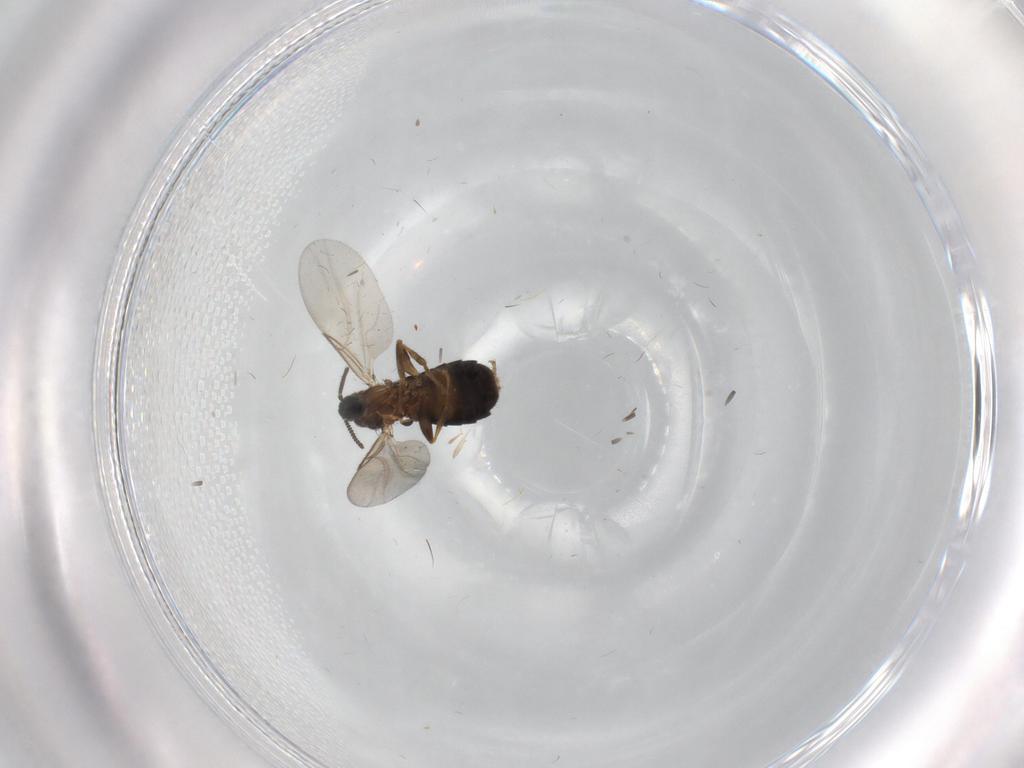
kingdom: Animalia
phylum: Arthropoda
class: Insecta
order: Diptera
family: Scatopsidae
